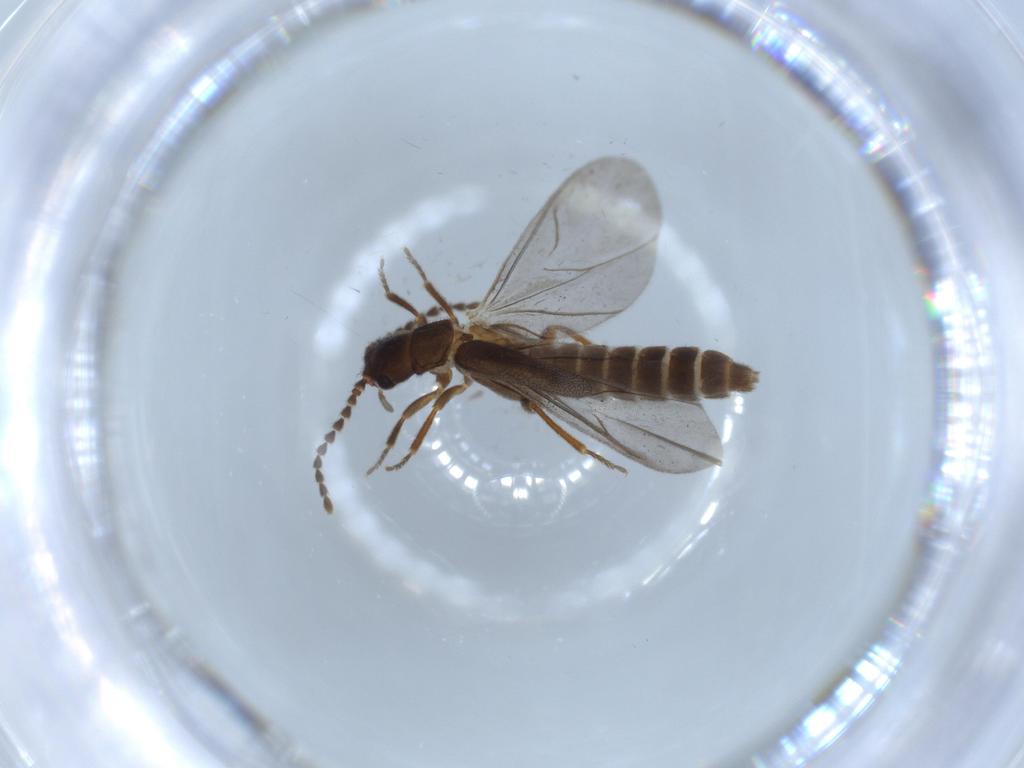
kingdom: Animalia
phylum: Arthropoda
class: Insecta
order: Coleoptera
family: Omethidae
